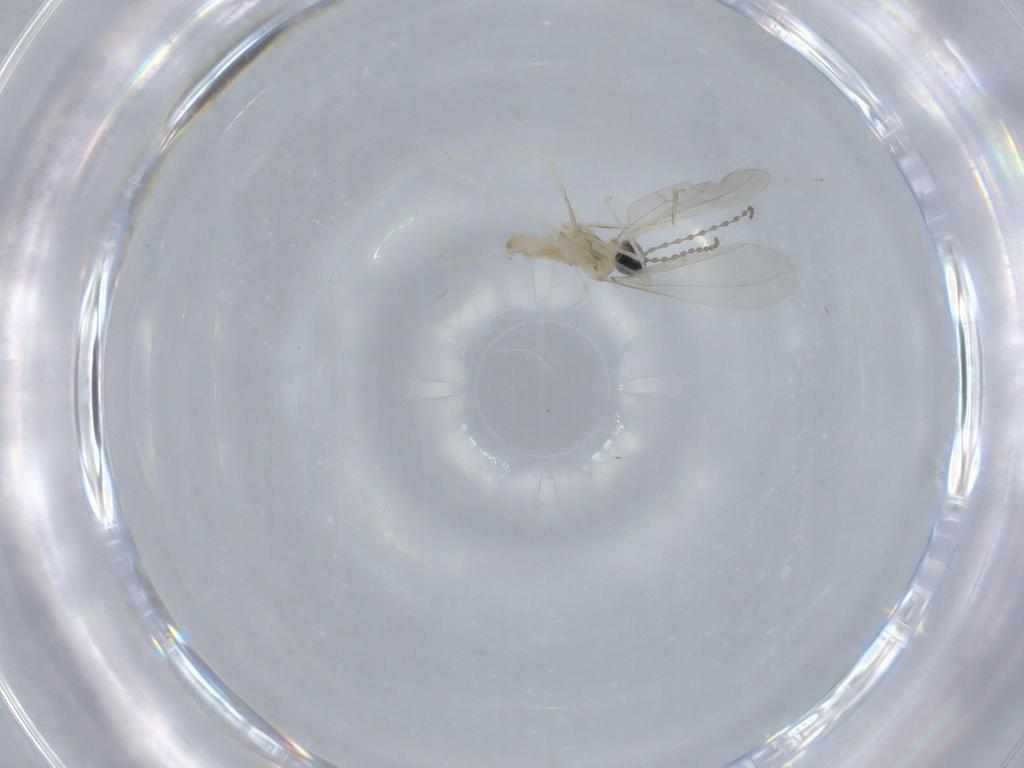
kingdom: Animalia
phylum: Arthropoda
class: Insecta
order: Diptera
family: Cecidomyiidae
